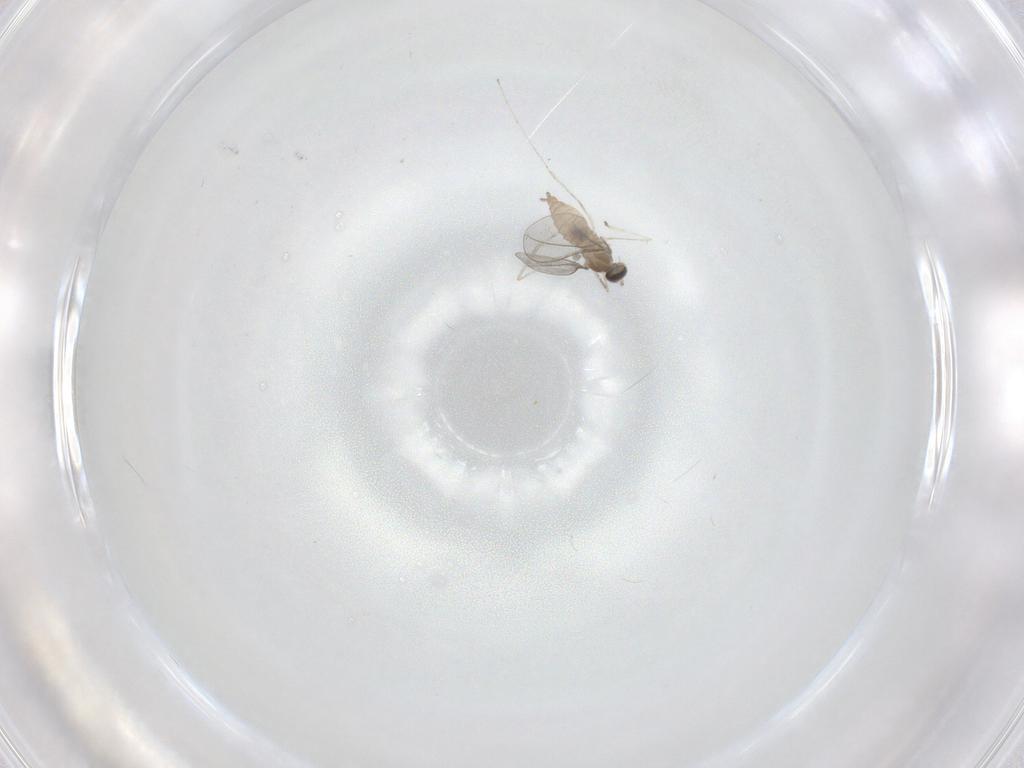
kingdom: Animalia
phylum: Arthropoda
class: Insecta
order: Diptera
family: Cecidomyiidae
